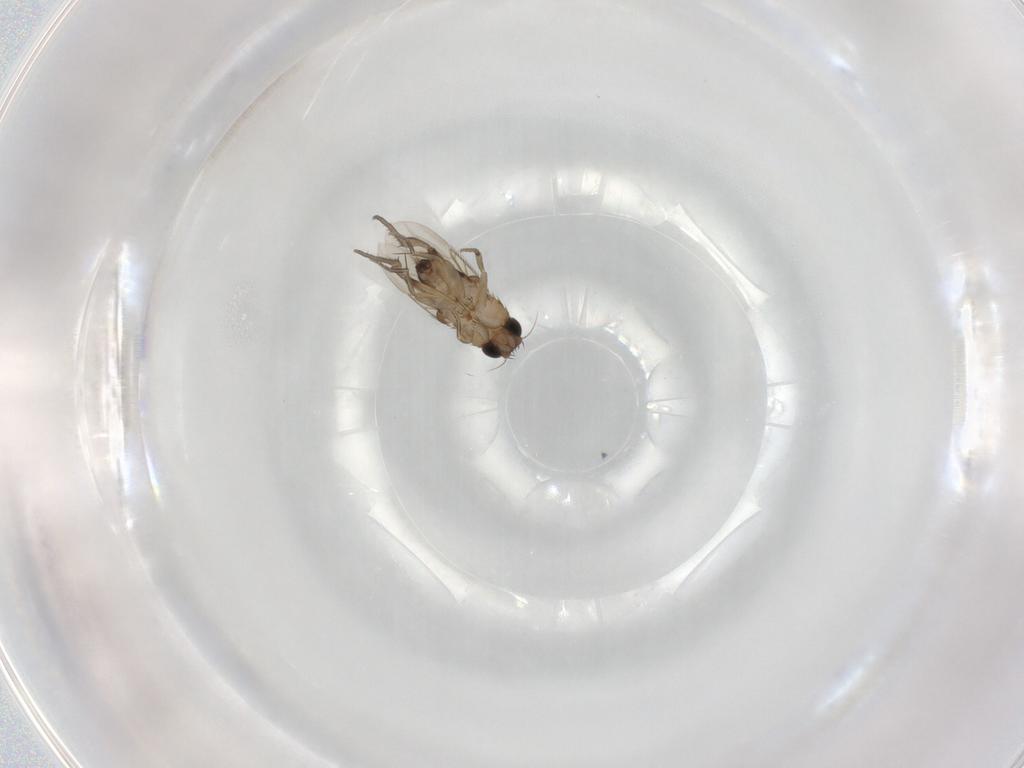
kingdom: Animalia
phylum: Arthropoda
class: Insecta
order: Diptera
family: Phoridae
